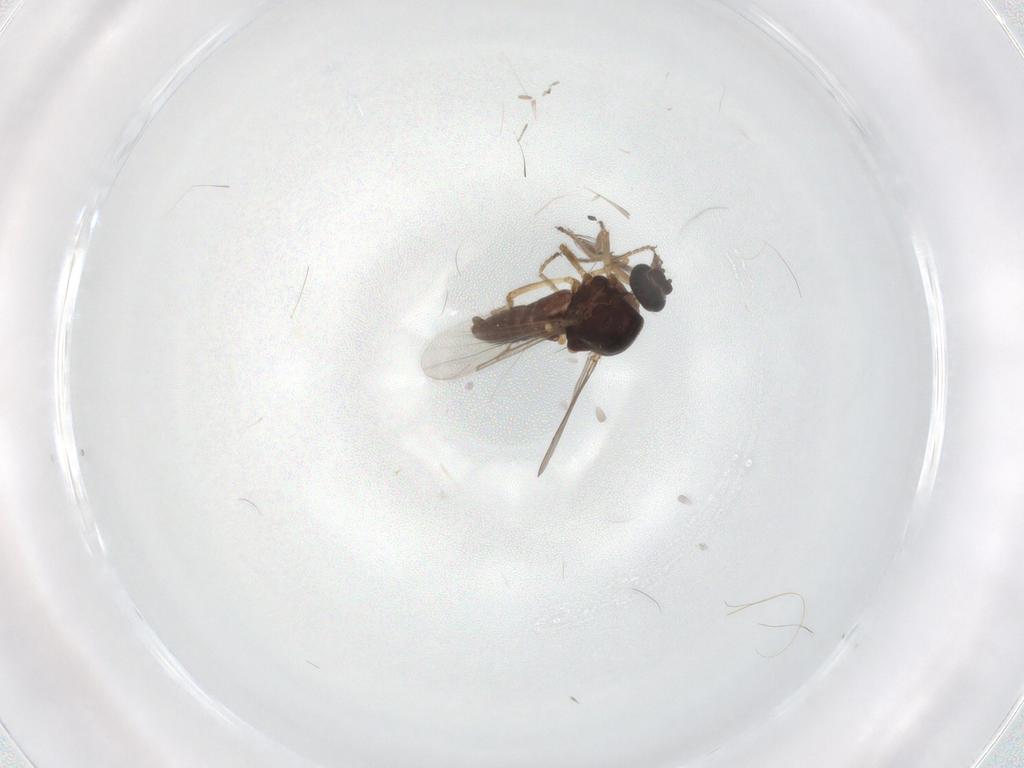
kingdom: Animalia
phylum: Arthropoda
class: Insecta
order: Diptera
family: Ceratopogonidae
